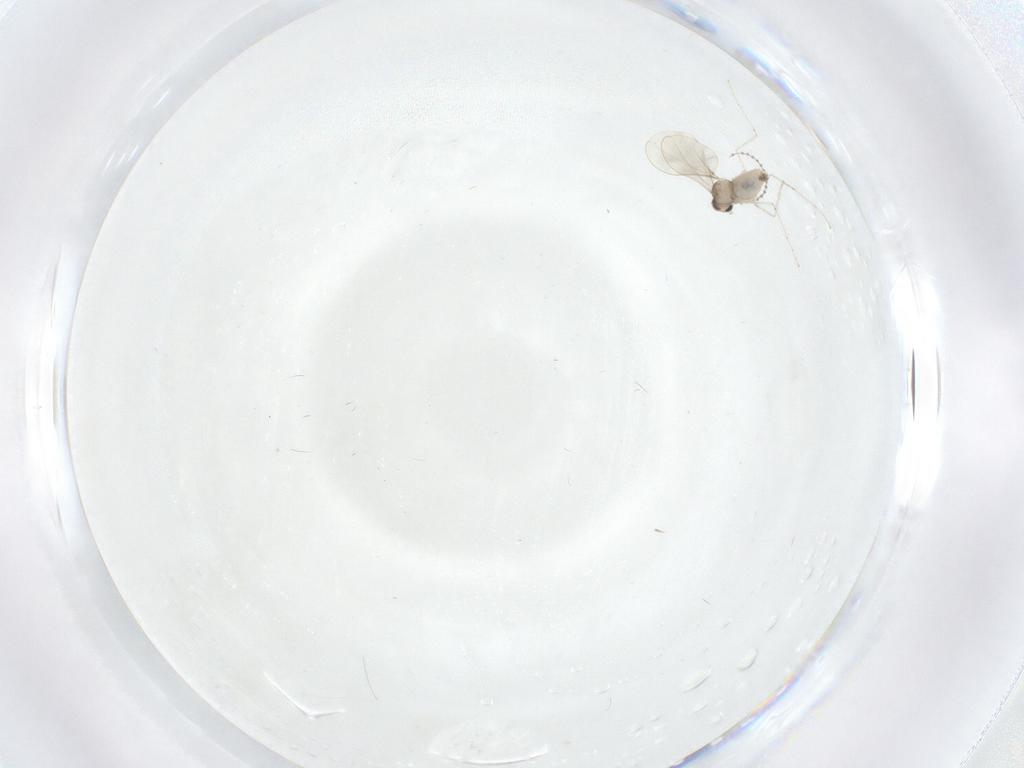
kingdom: Animalia
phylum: Arthropoda
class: Insecta
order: Diptera
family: Cecidomyiidae
